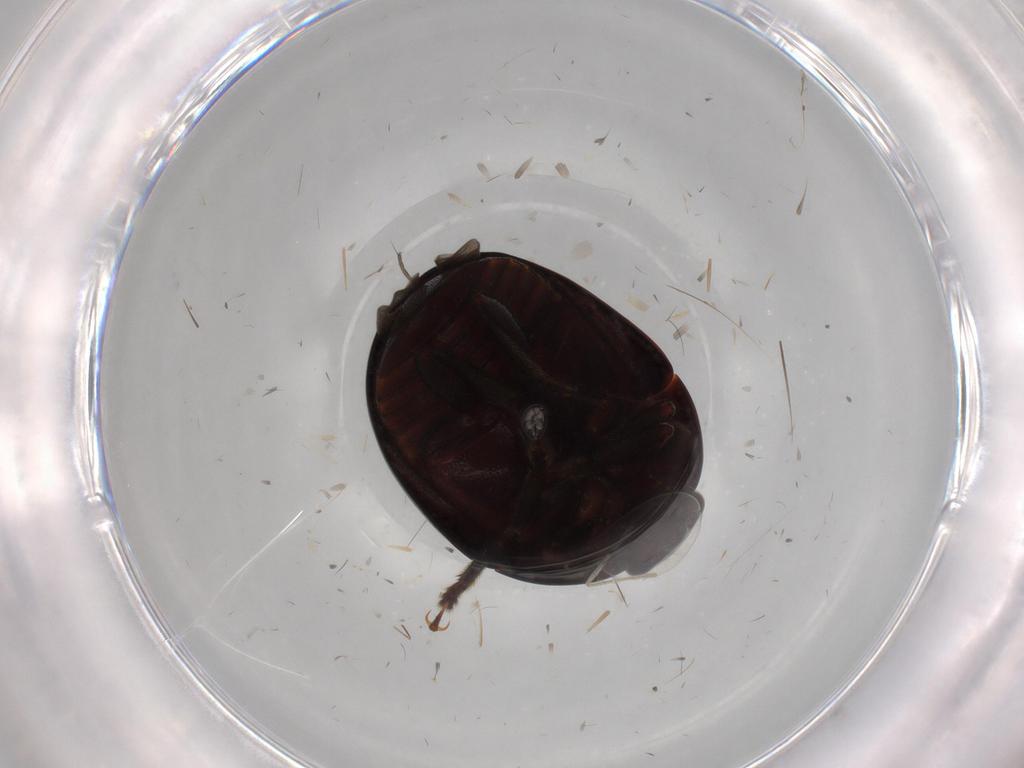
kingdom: Animalia
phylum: Arthropoda
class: Insecta
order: Coleoptera
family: Nitidulidae
